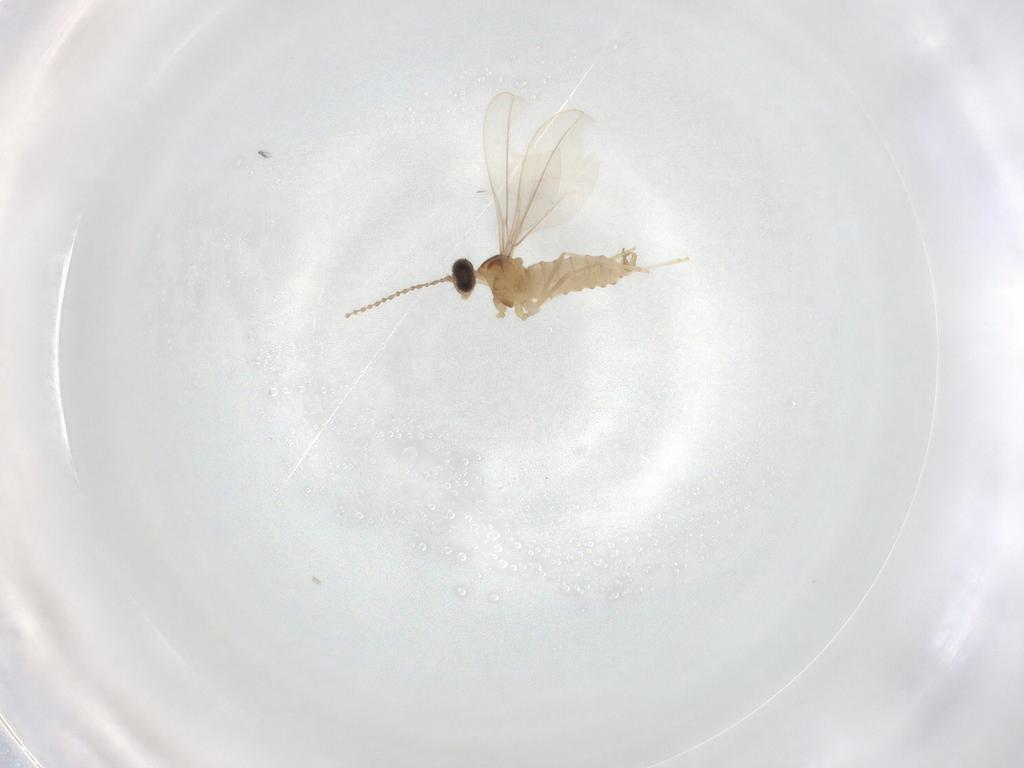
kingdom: Animalia
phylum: Arthropoda
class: Insecta
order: Diptera
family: Cecidomyiidae
